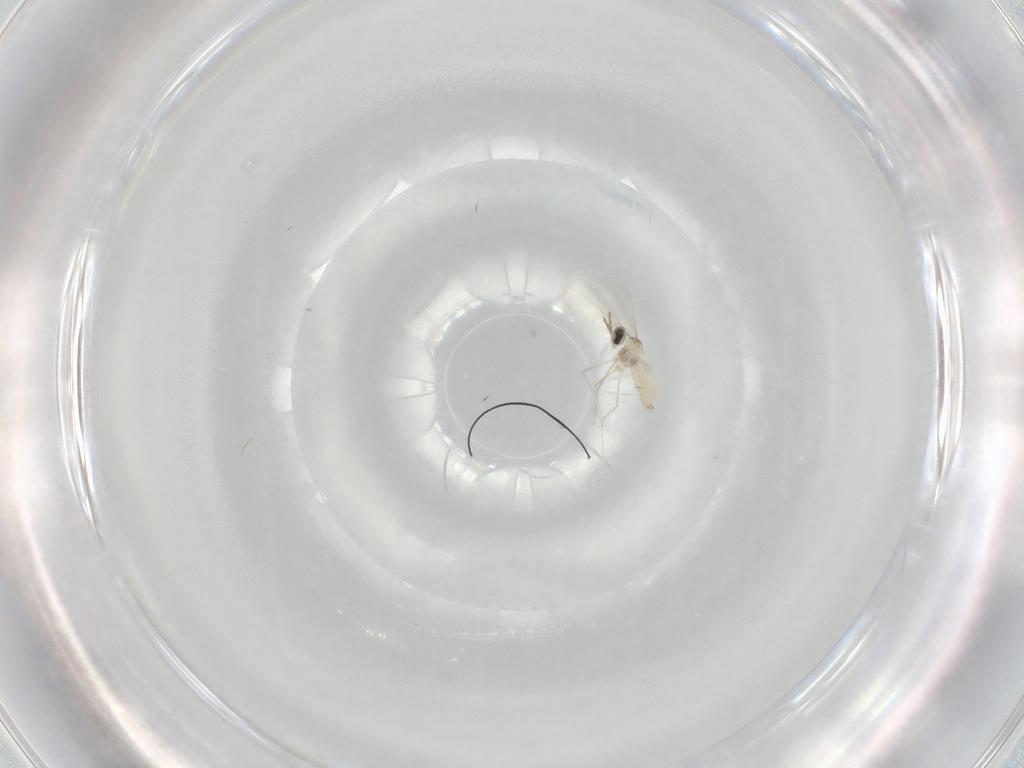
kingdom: Animalia
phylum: Arthropoda
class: Insecta
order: Diptera
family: Cecidomyiidae
